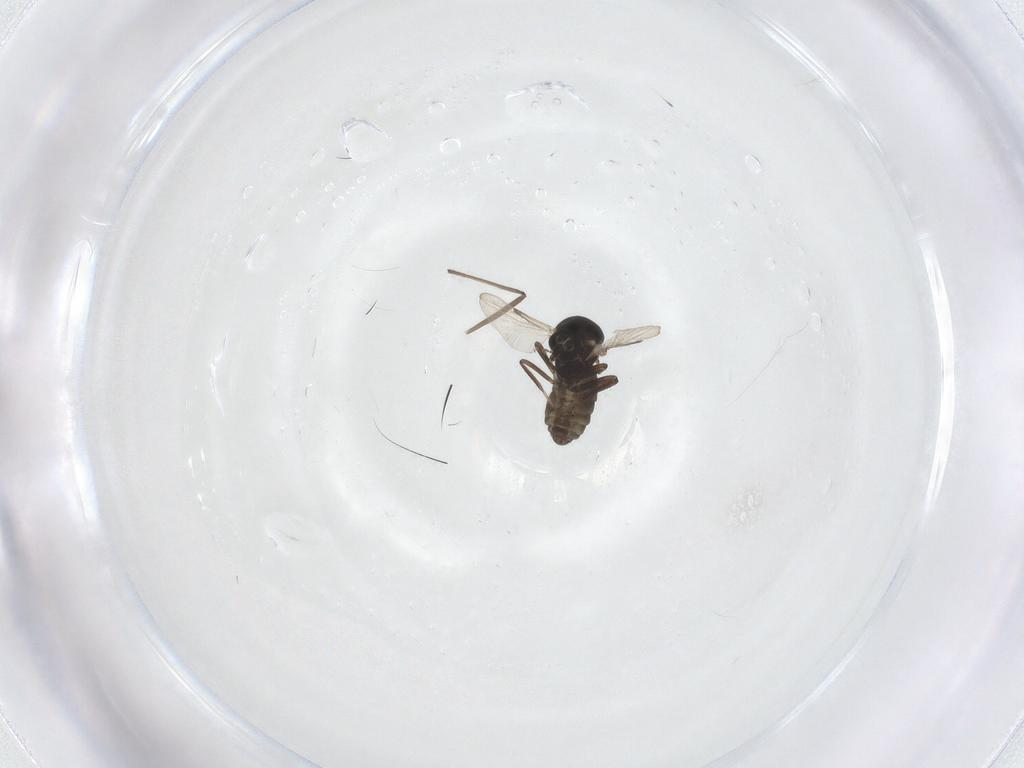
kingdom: Animalia
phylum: Arthropoda
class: Insecta
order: Diptera
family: Ceratopogonidae
